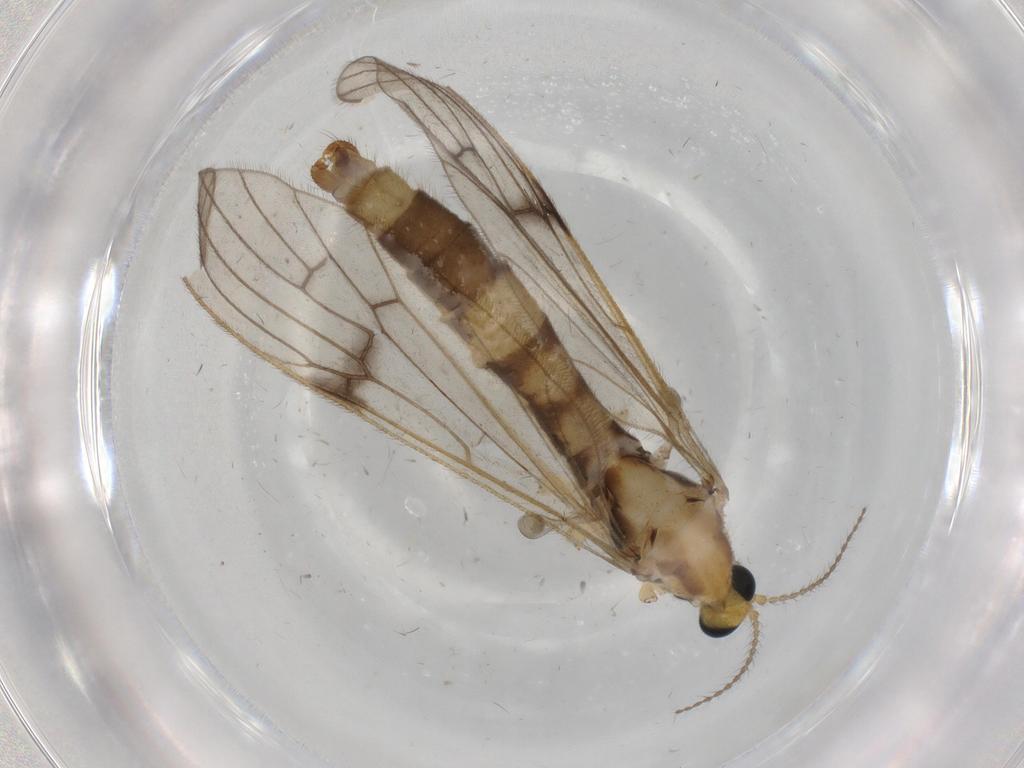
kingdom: Animalia
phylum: Arthropoda
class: Insecta
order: Diptera
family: Limoniidae
